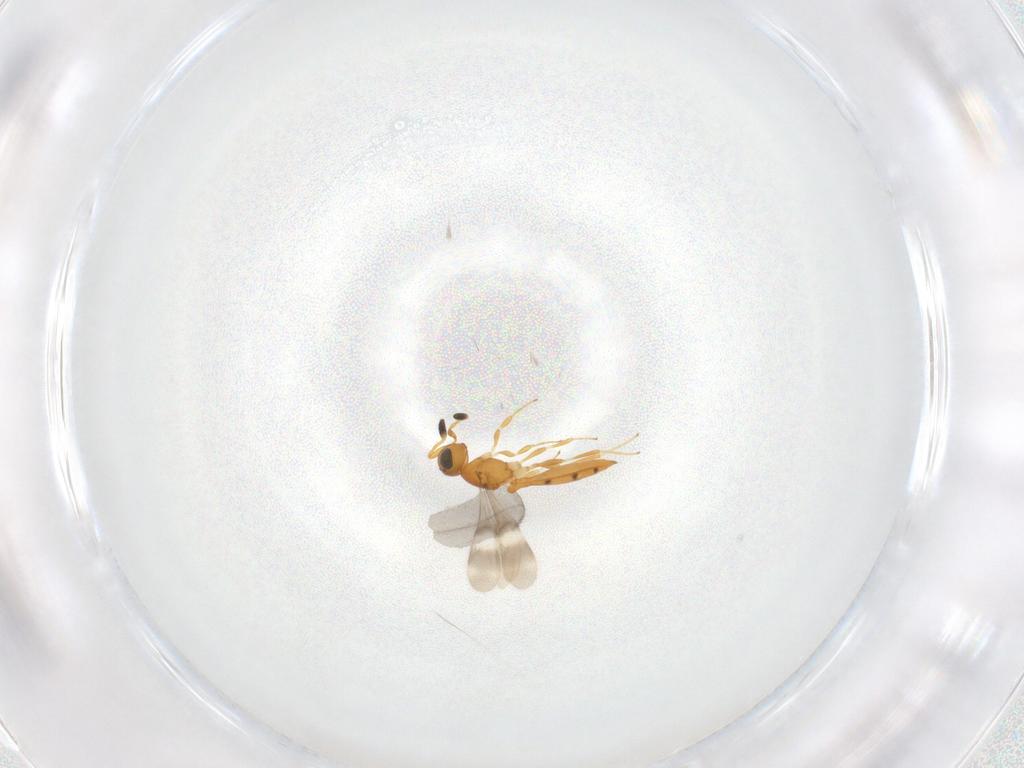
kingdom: Animalia
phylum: Arthropoda
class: Insecta
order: Hymenoptera
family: Scelionidae
